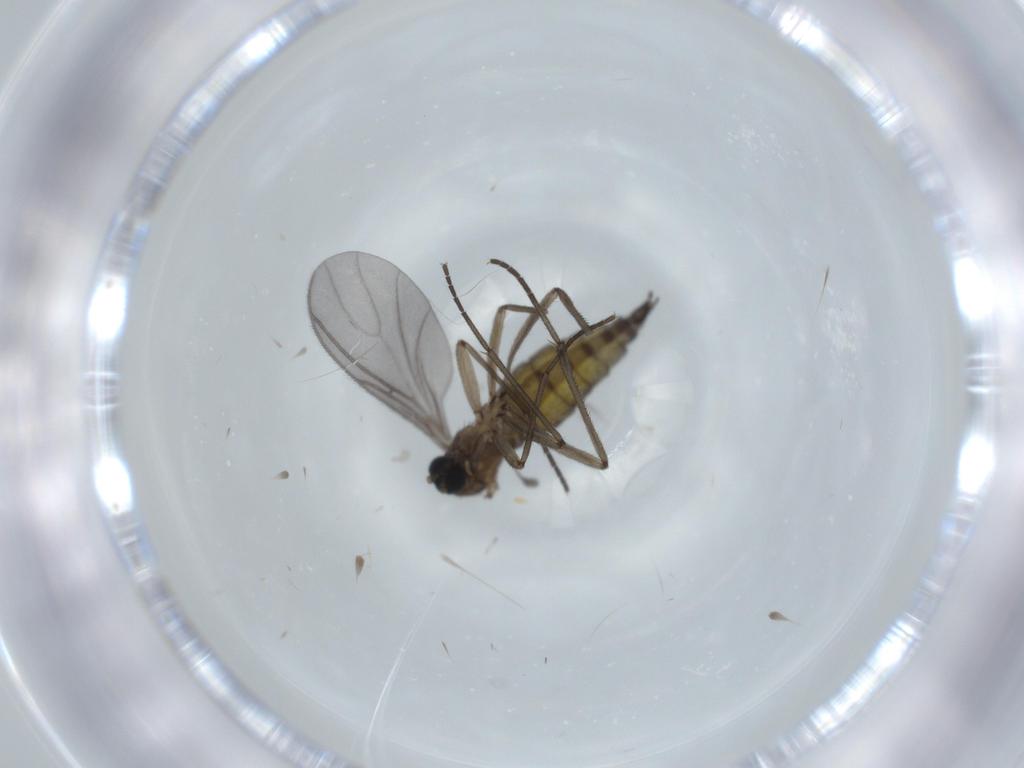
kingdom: Animalia
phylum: Arthropoda
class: Insecta
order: Diptera
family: Sciaridae
